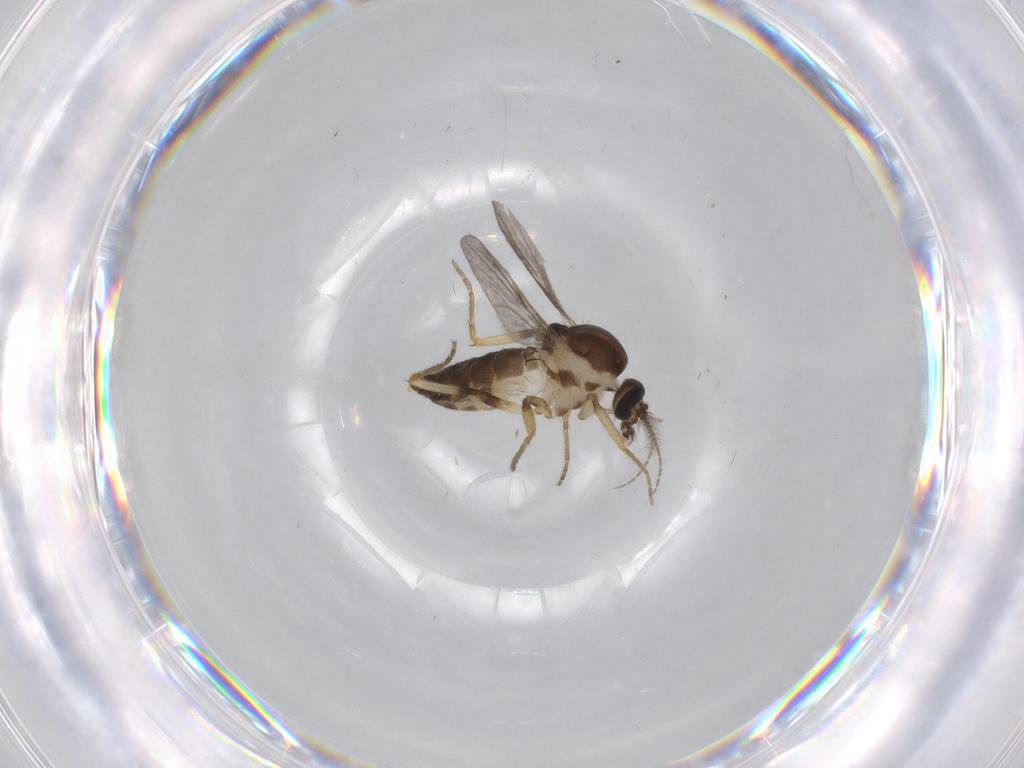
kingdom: Animalia
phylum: Arthropoda
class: Insecta
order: Diptera
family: Ceratopogonidae
